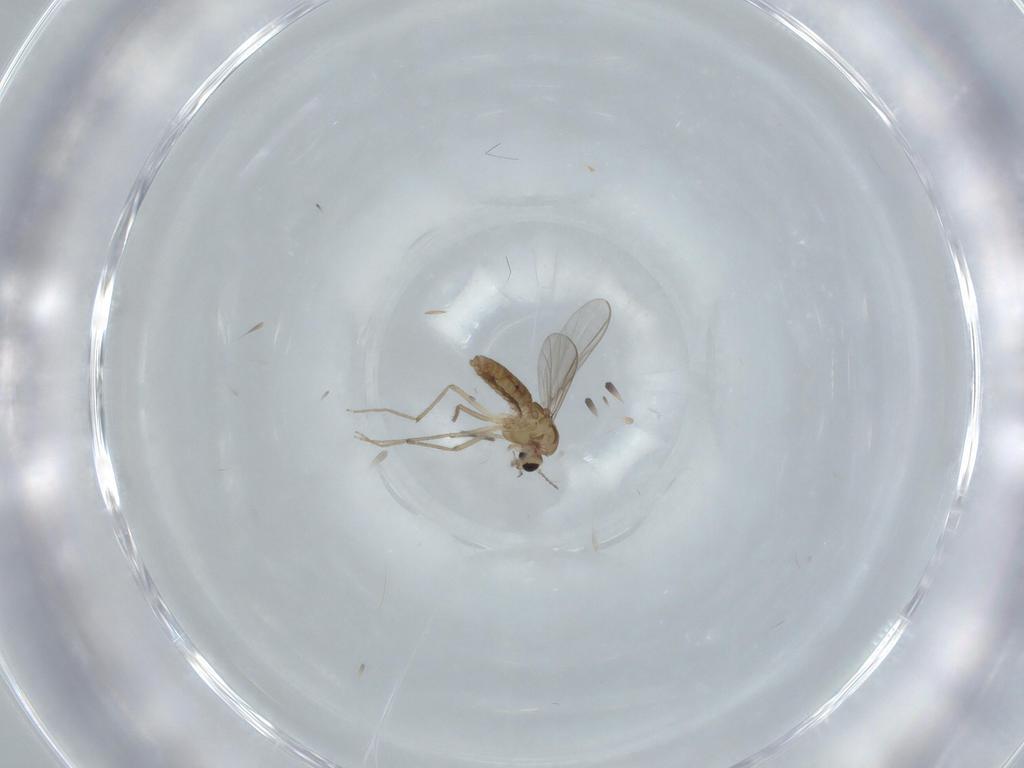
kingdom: Animalia
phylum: Arthropoda
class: Insecta
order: Diptera
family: Chironomidae
